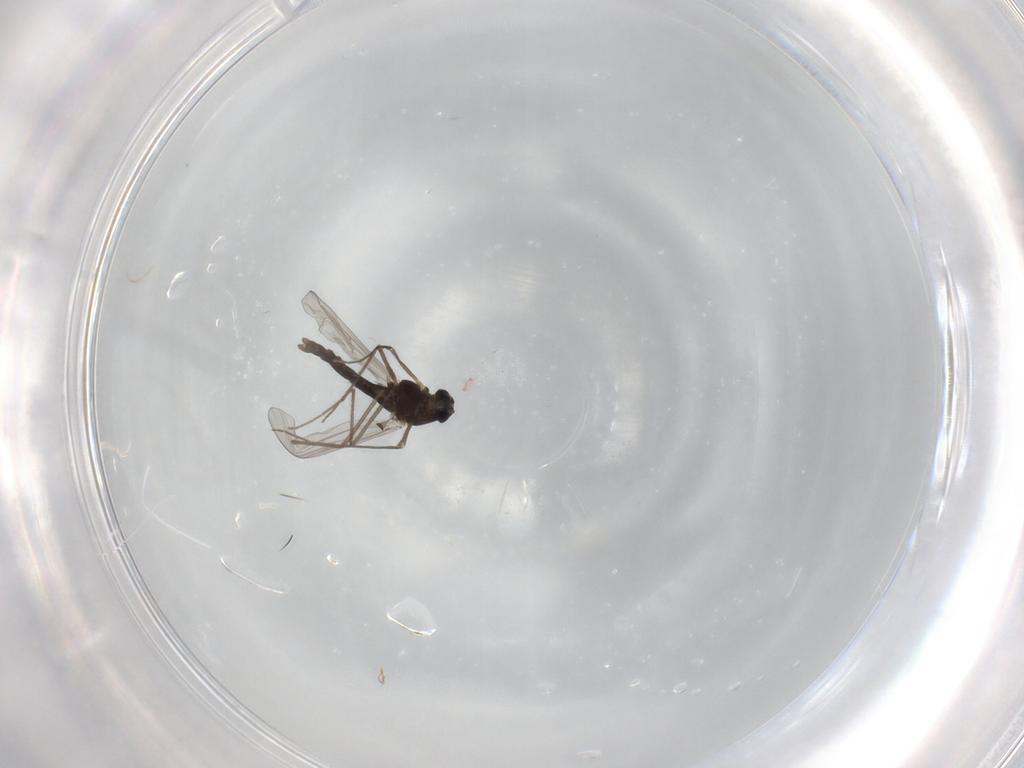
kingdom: Animalia
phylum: Arthropoda
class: Insecta
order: Diptera
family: Chironomidae
